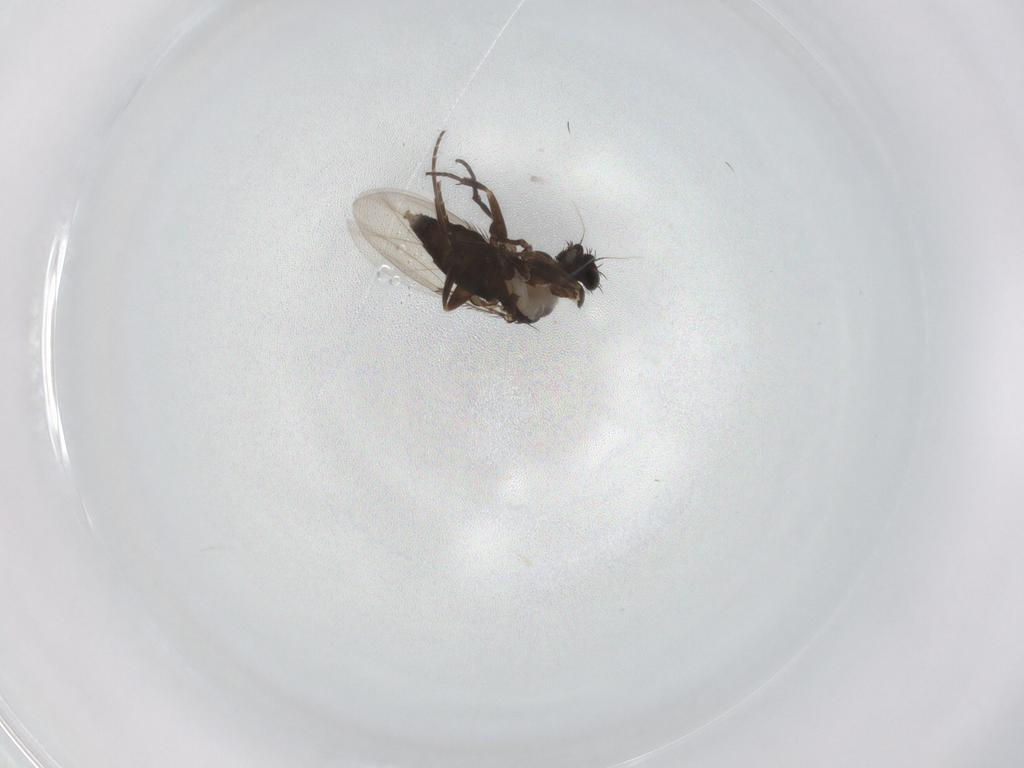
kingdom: Animalia
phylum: Arthropoda
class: Insecta
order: Diptera
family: Phoridae
